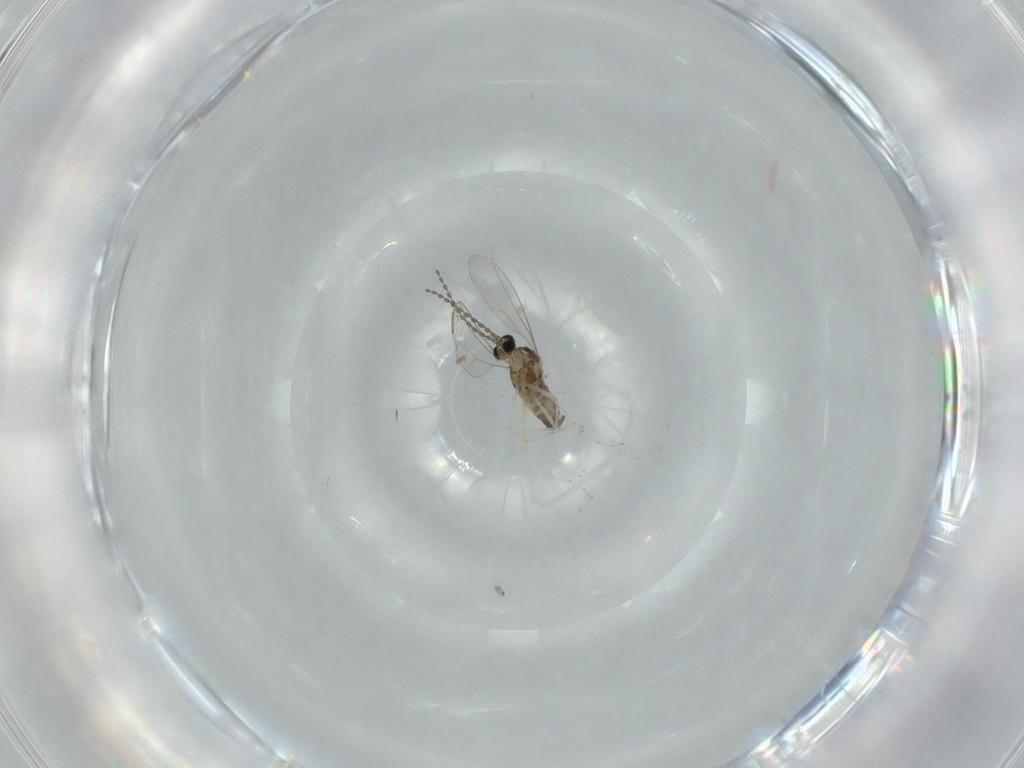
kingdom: Animalia
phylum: Arthropoda
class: Insecta
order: Diptera
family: Cecidomyiidae
